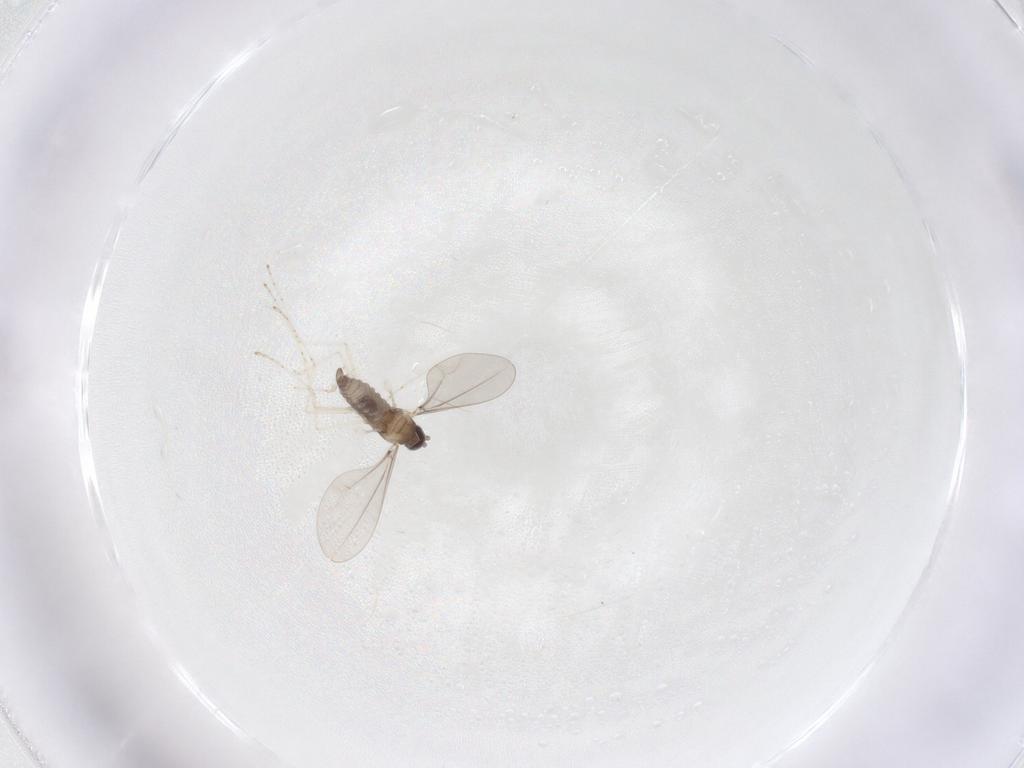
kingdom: Animalia
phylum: Arthropoda
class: Insecta
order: Diptera
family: Cecidomyiidae
